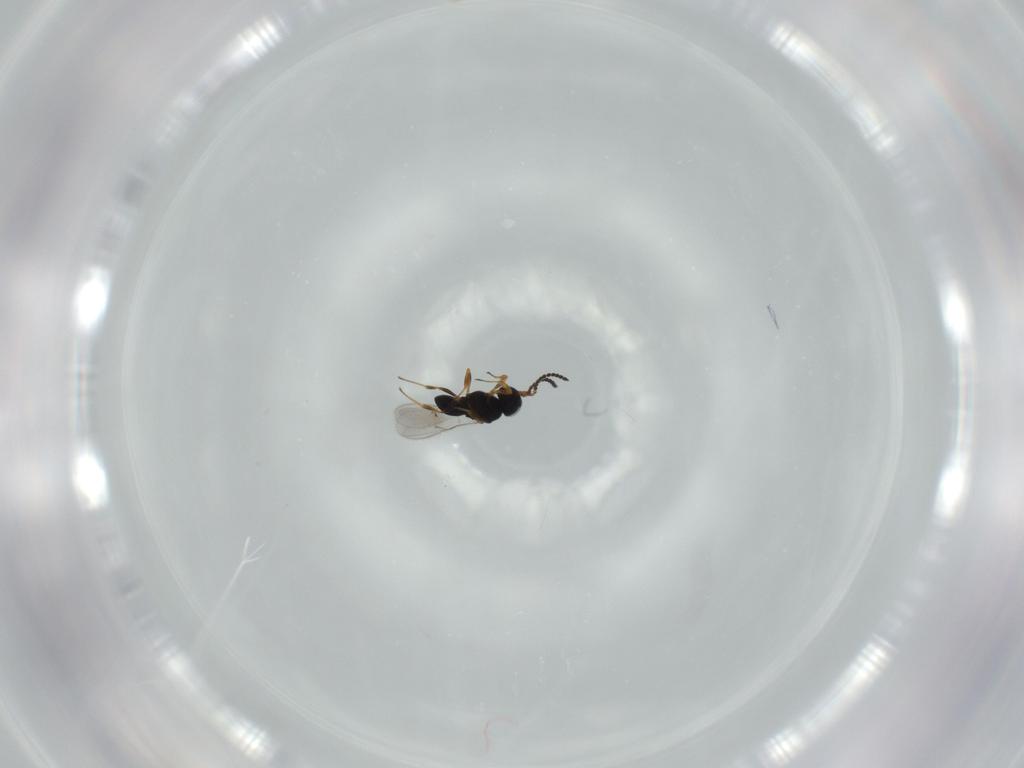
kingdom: Animalia
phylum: Arthropoda
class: Insecta
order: Hymenoptera
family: Scelionidae
